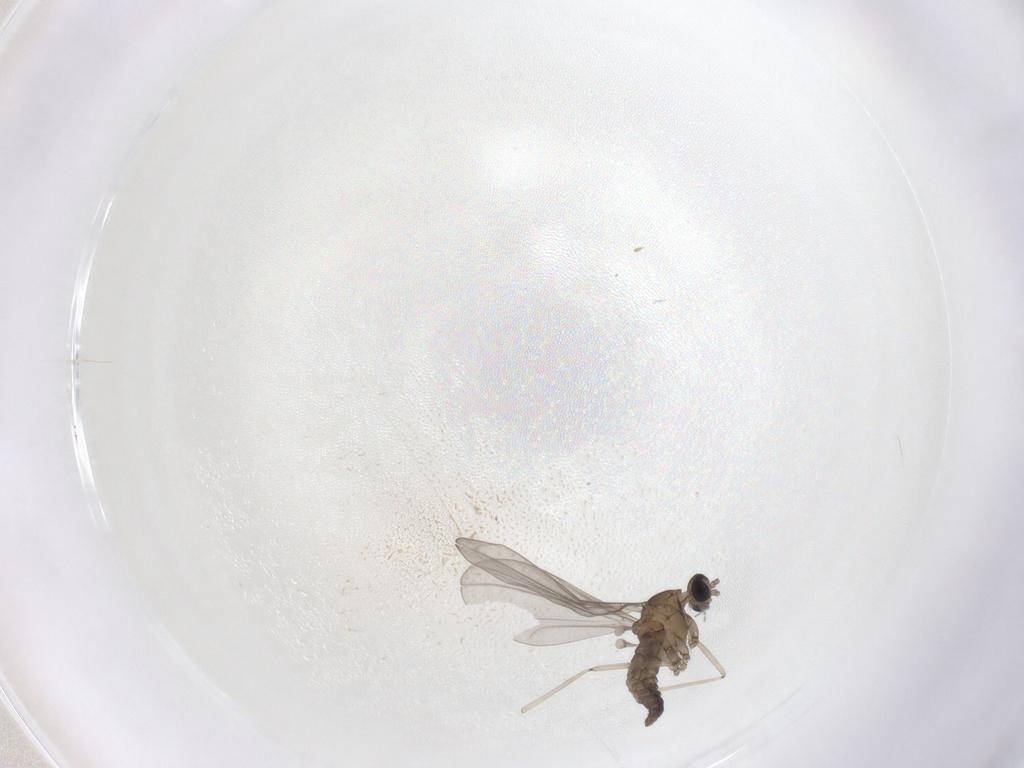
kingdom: Animalia
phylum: Arthropoda
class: Insecta
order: Diptera
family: Cecidomyiidae
